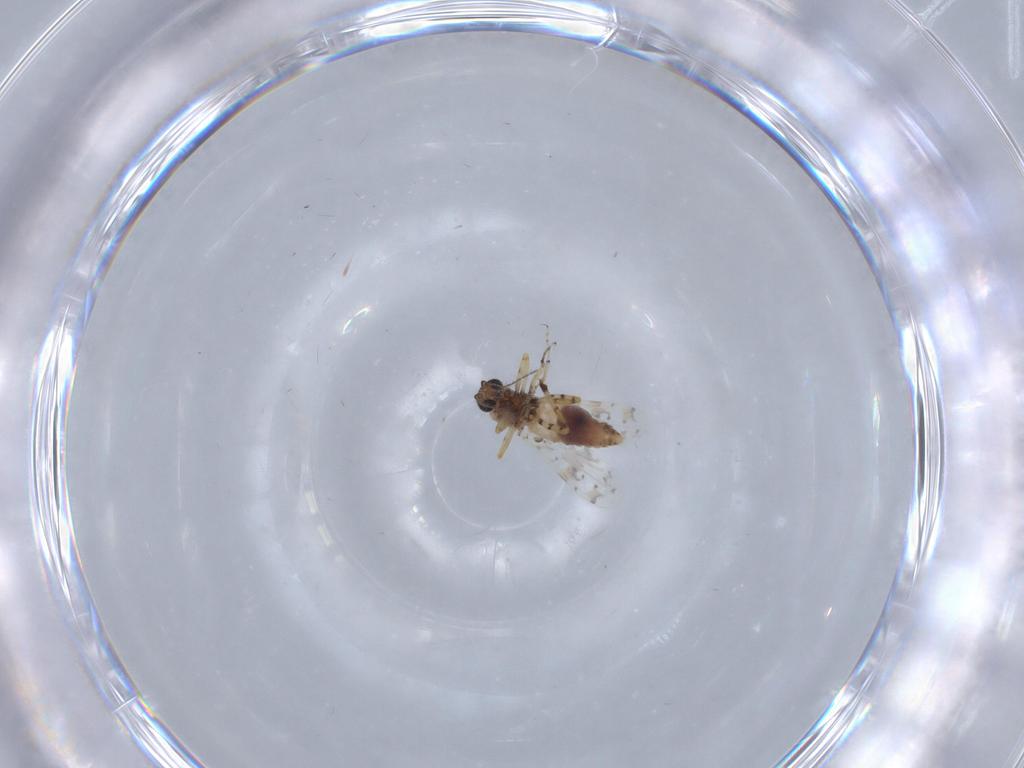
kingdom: Animalia
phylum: Arthropoda
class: Insecta
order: Diptera
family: Ceratopogonidae
